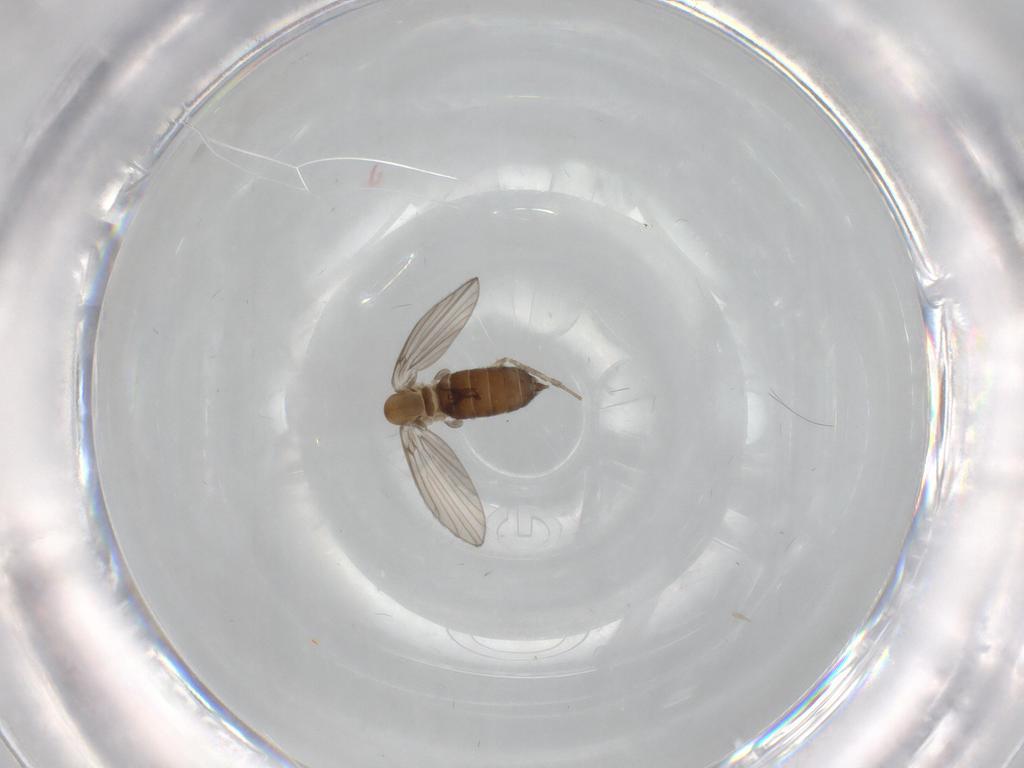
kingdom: Animalia
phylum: Arthropoda
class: Insecta
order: Diptera
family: Psychodidae
